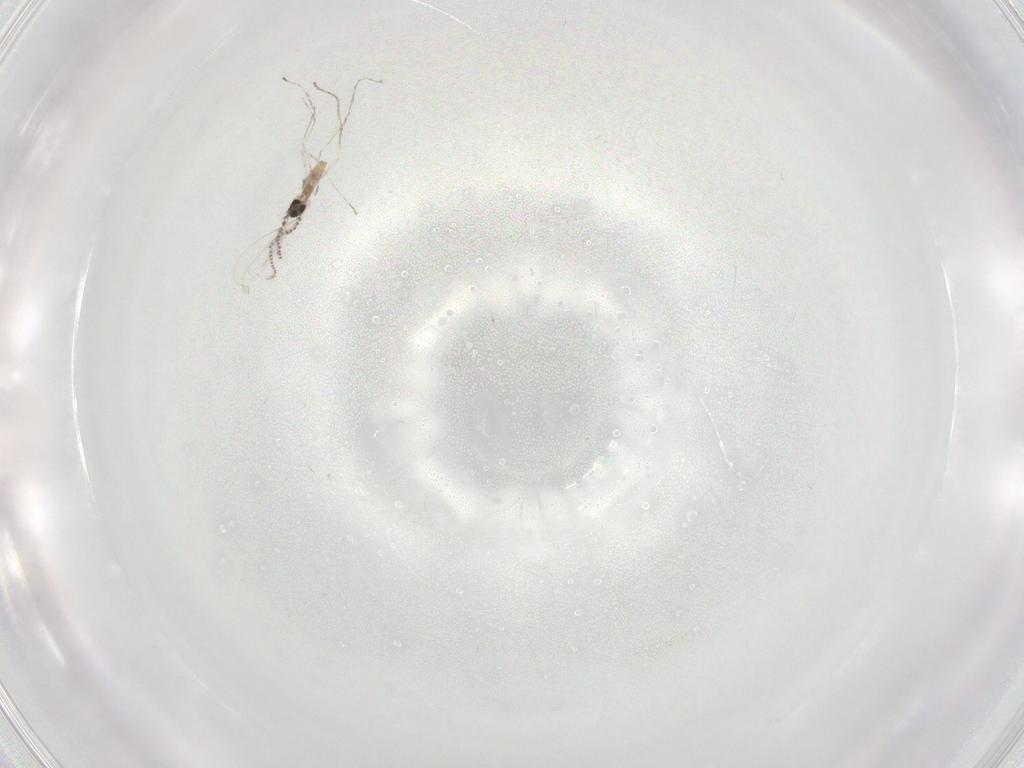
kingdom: Animalia
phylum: Arthropoda
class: Insecta
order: Diptera
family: Cecidomyiidae
